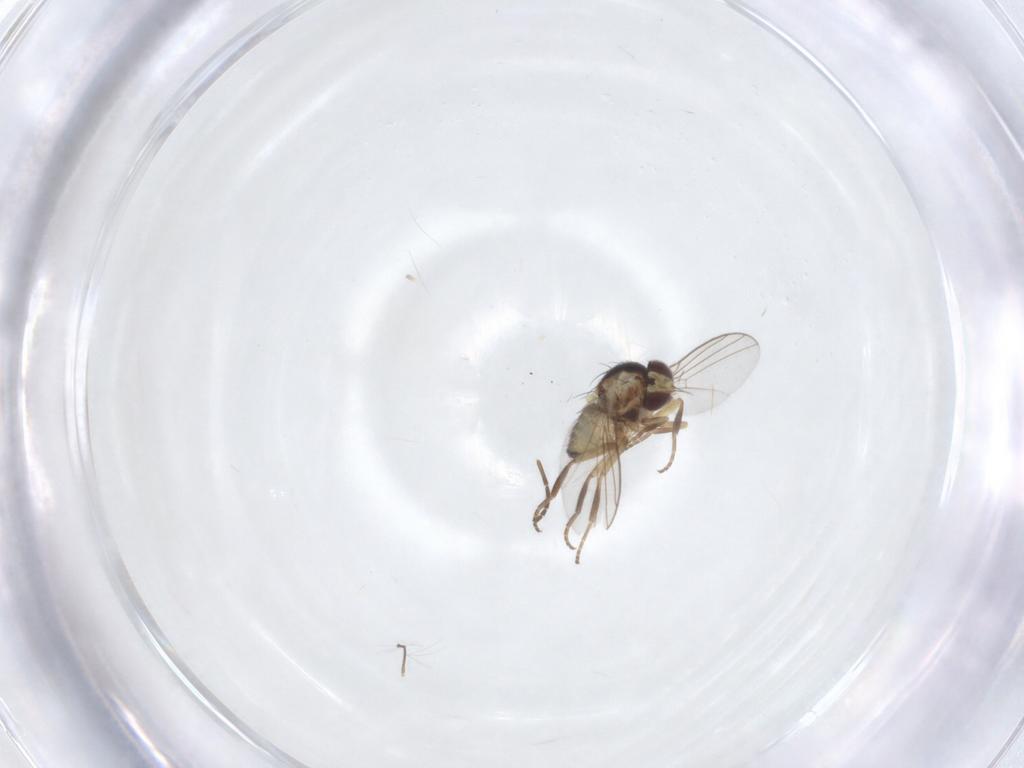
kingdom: Animalia
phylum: Arthropoda
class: Insecta
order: Diptera
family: Agromyzidae
